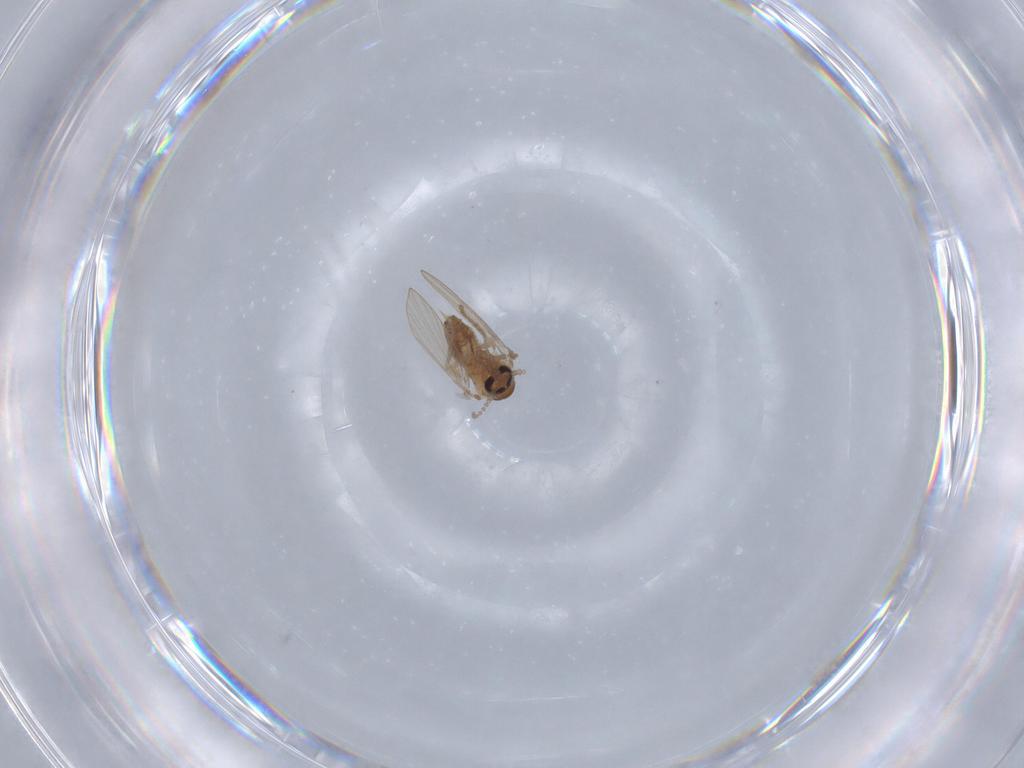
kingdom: Animalia
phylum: Arthropoda
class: Insecta
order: Diptera
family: Psychodidae
